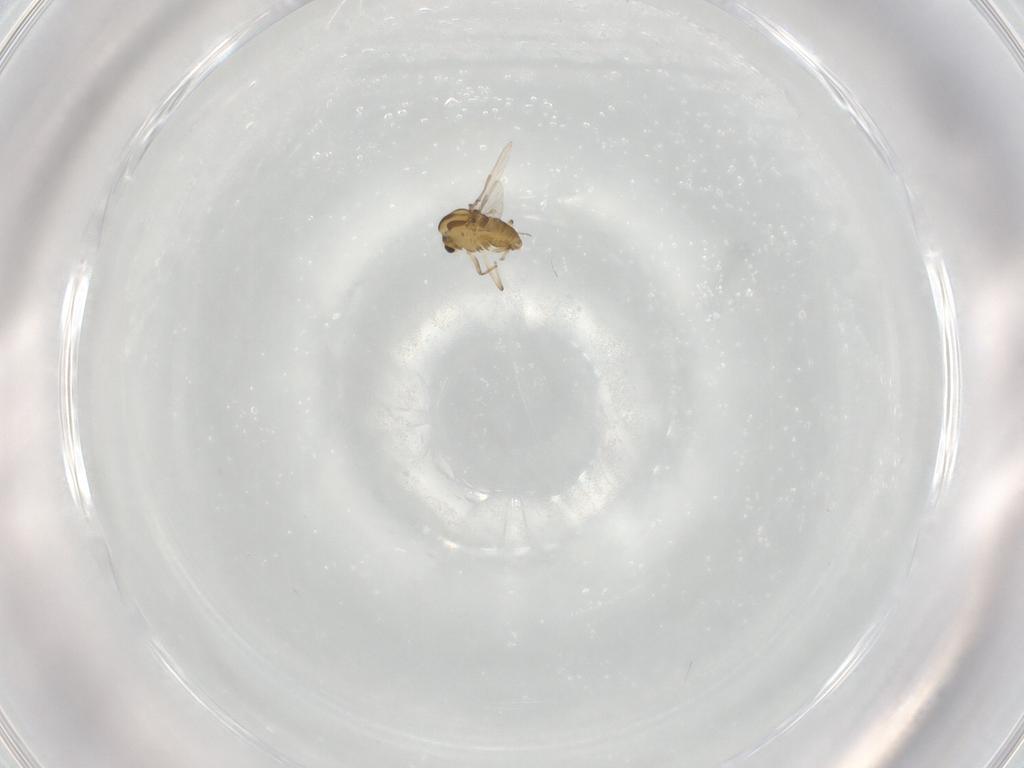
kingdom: Animalia
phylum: Arthropoda
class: Insecta
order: Diptera
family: Chironomidae
